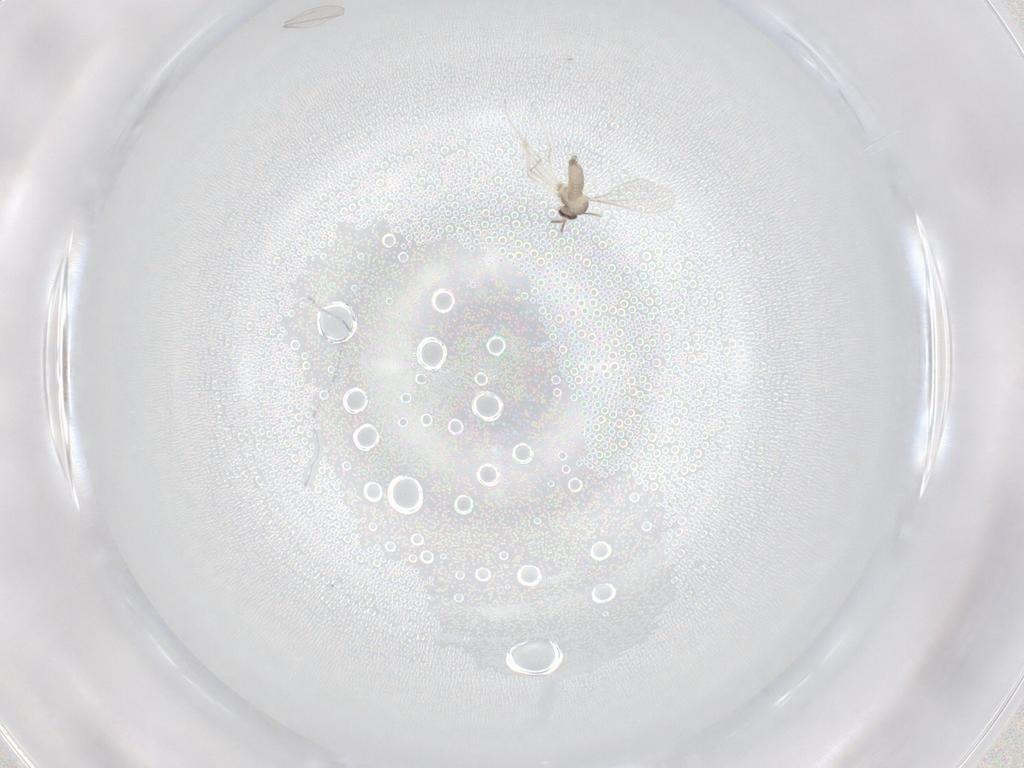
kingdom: Animalia
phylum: Arthropoda
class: Insecta
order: Diptera
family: Cecidomyiidae
